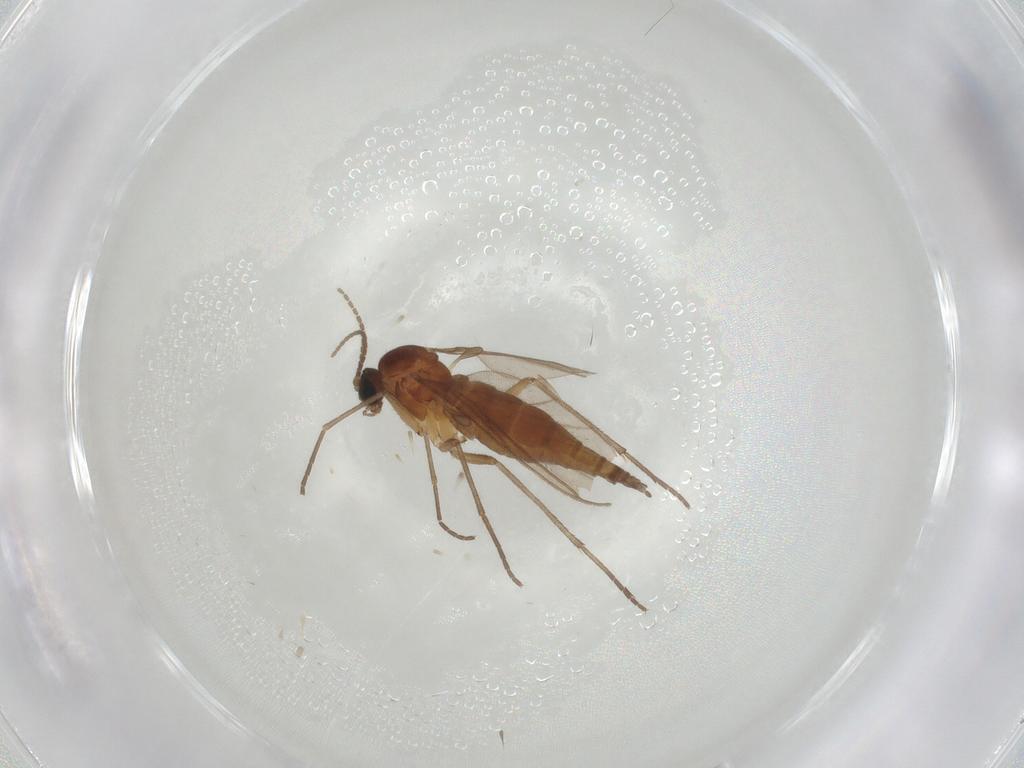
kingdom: Animalia
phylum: Arthropoda
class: Insecta
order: Diptera
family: Sciaridae
